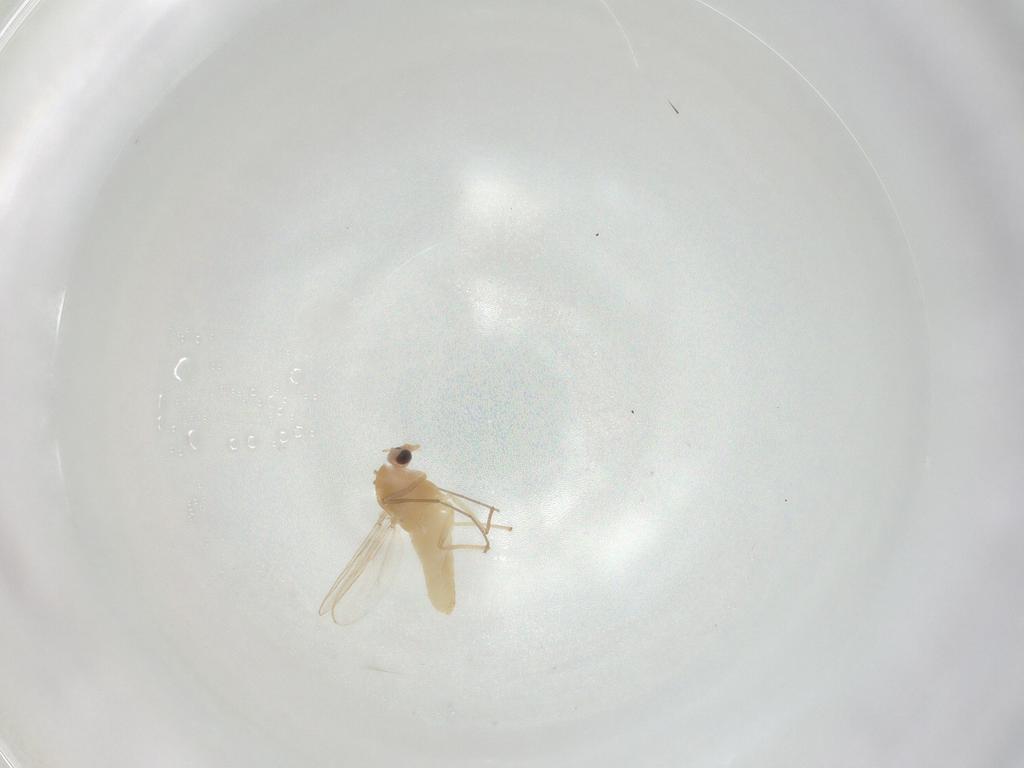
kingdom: Animalia
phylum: Arthropoda
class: Insecta
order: Diptera
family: Chironomidae
